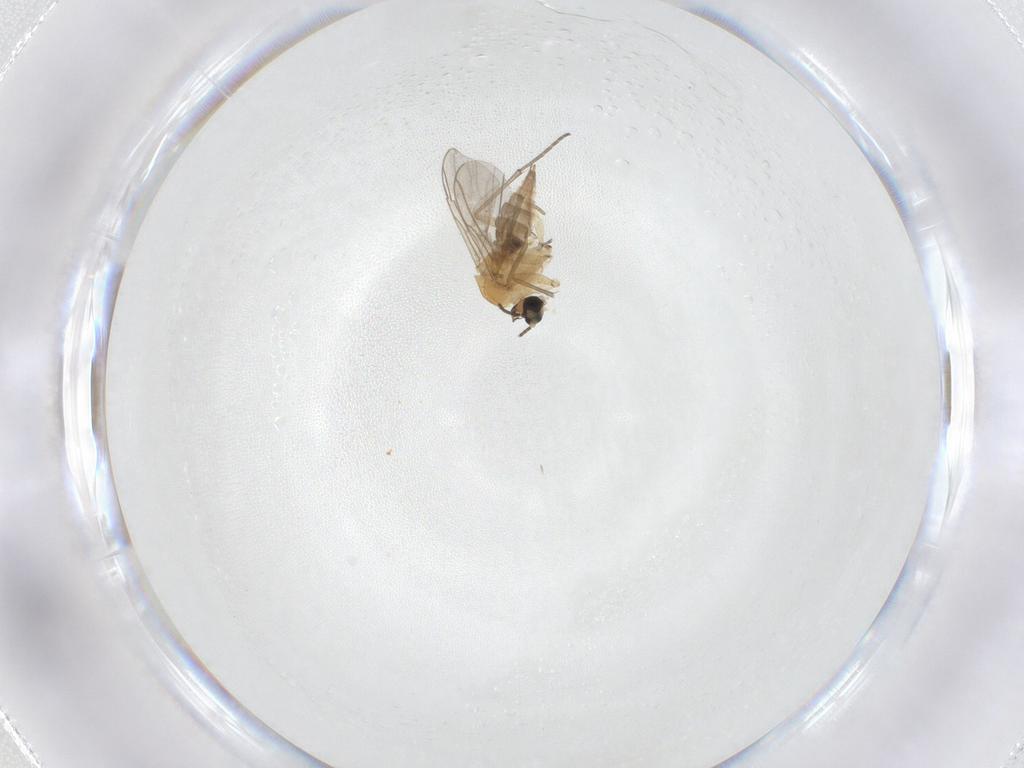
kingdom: Animalia
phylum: Arthropoda
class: Insecta
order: Diptera
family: Sciaridae
